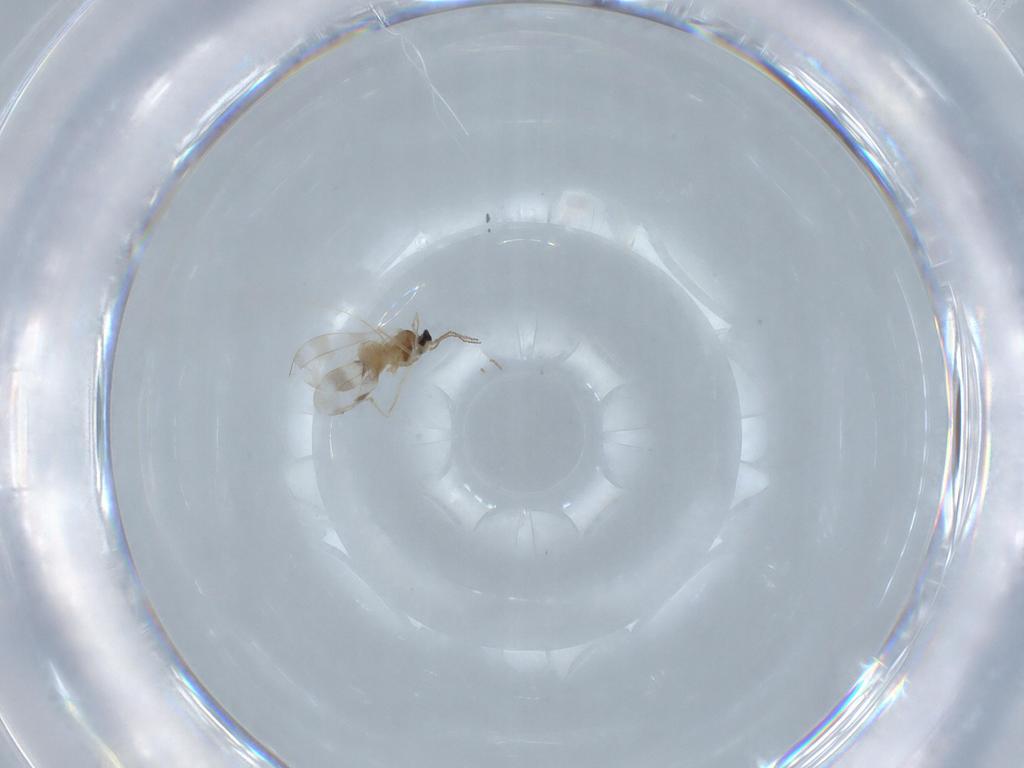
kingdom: Animalia
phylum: Arthropoda
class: Insecta
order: Diptera
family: Cecidomyiidae
